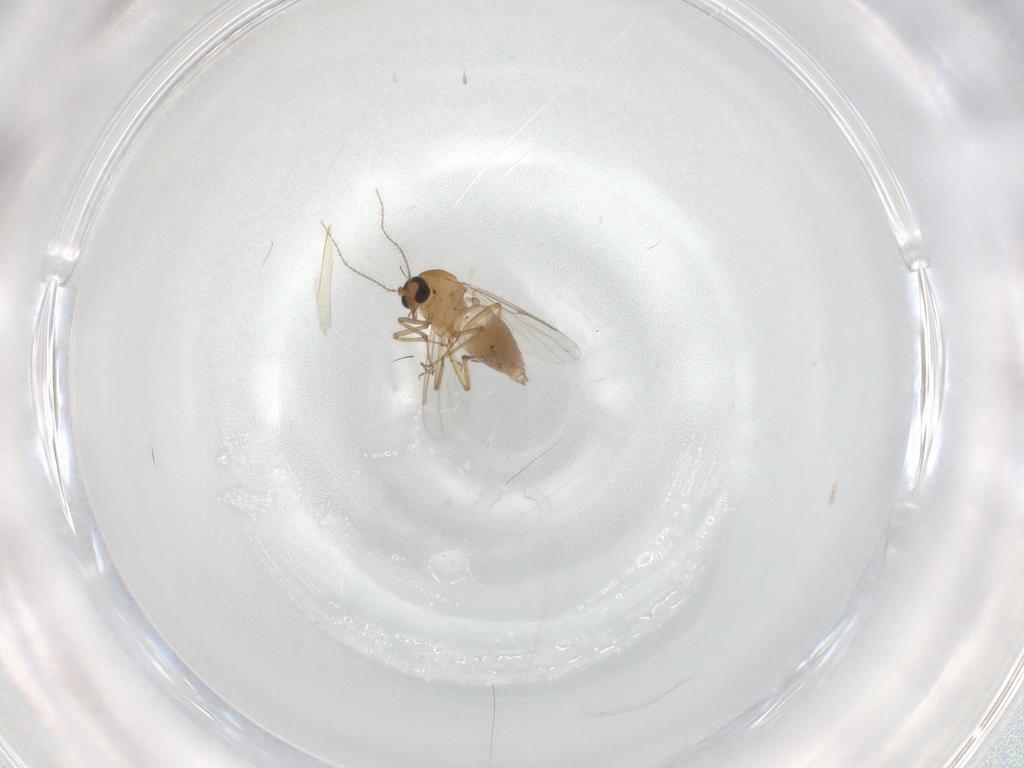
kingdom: Animalia
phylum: Arthropoda
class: Insecta
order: Diptera
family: Ceratopogonidae
